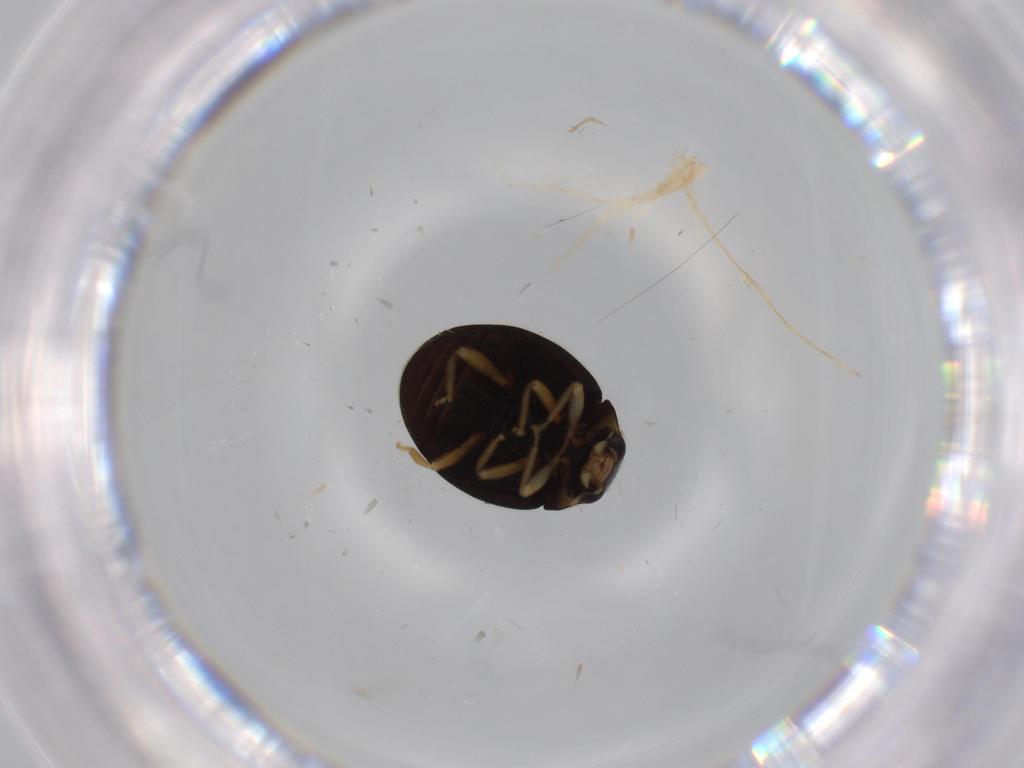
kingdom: Animalia
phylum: Arthropoda
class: Insecta
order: Coleoptera
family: Coccinellidae
